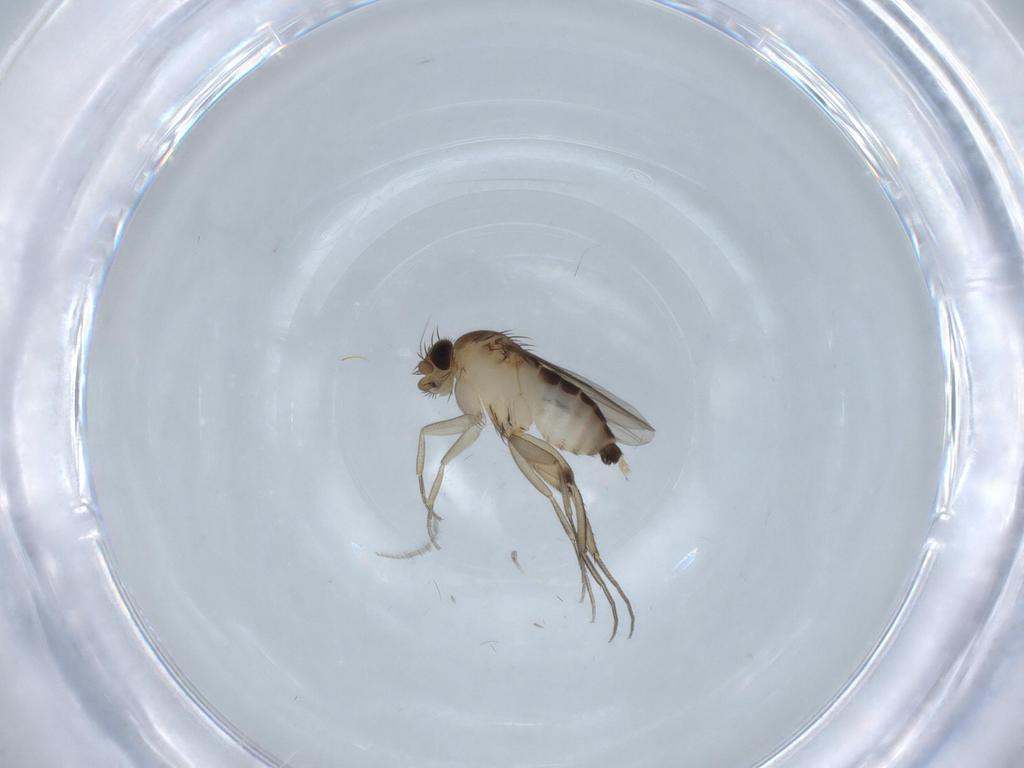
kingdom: Animalia
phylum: Arthropoda
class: Insecta
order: Diptera
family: Ceratopogonidae
